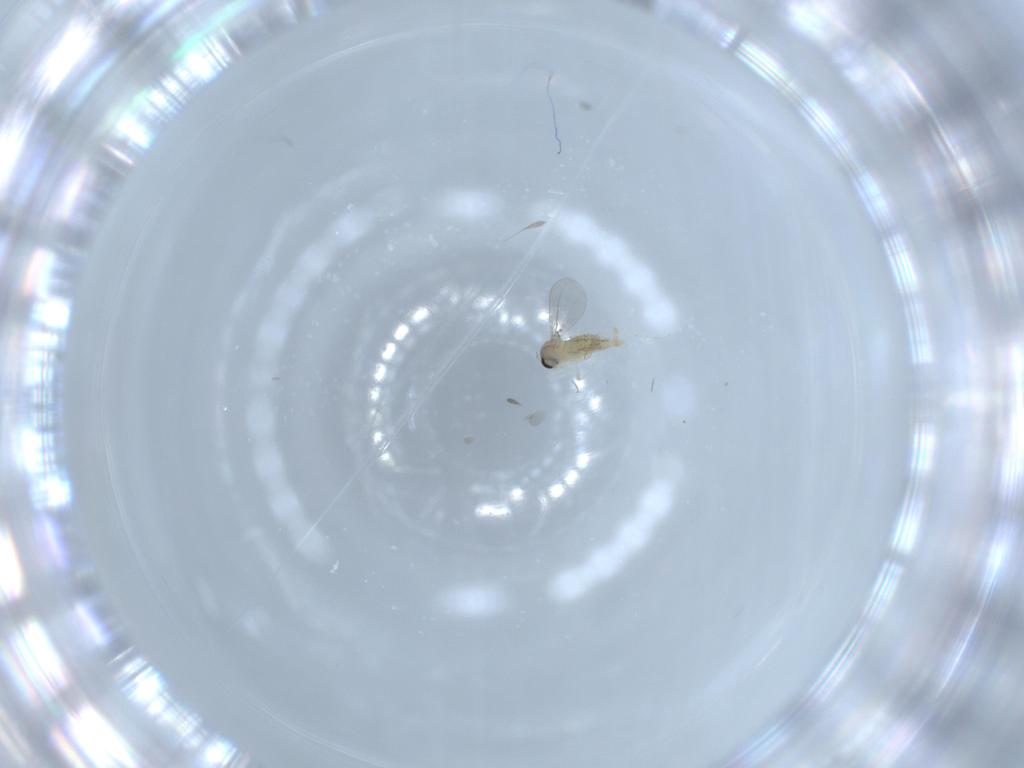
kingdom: Animalia
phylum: Arthropoda
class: Insecta
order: Diptera
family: Cecidomyiidae
